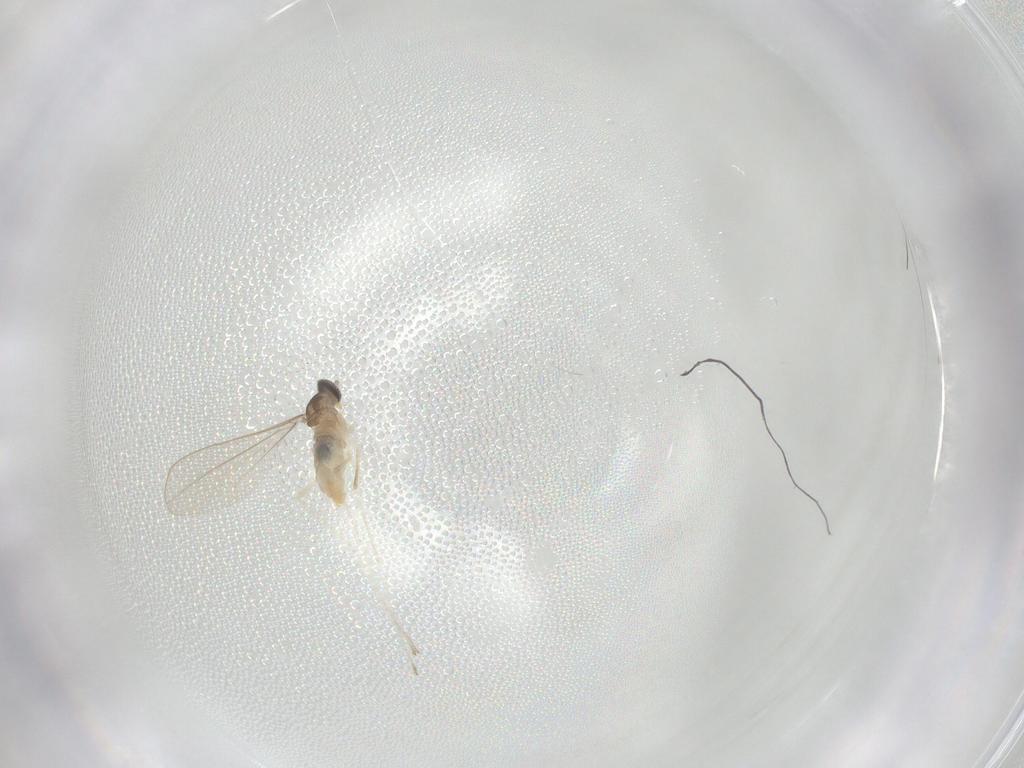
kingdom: Animalia
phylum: Arthropoda
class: Insecta
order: Diptera
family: Cecidomyiidae
